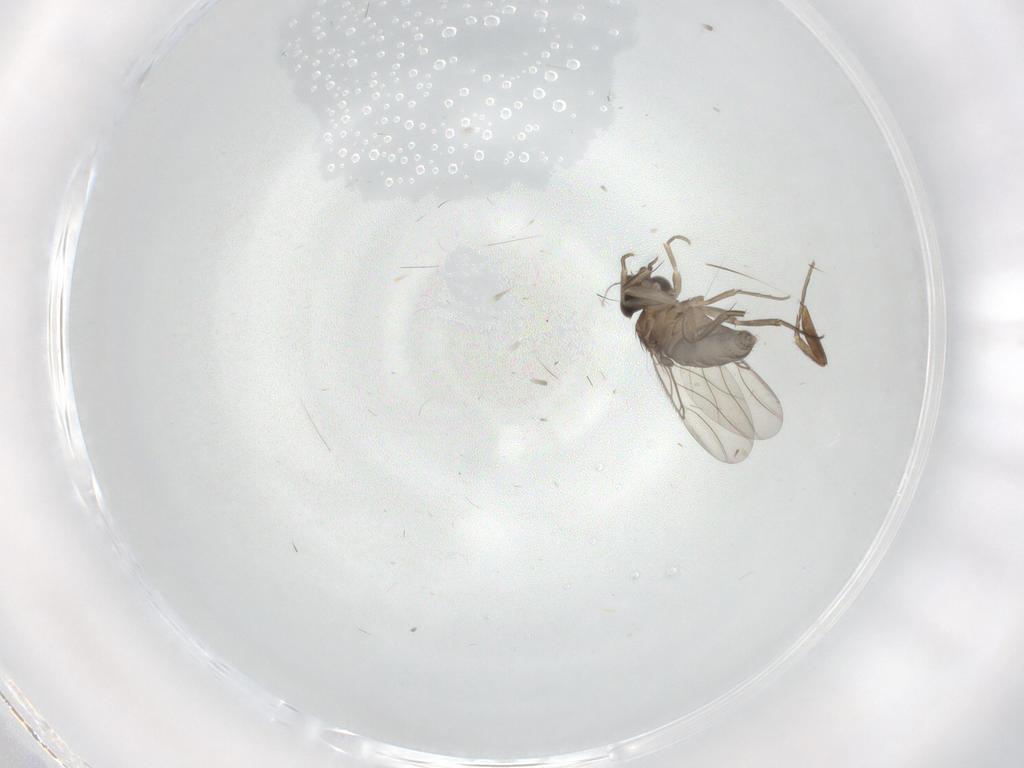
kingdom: Animalia
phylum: Arthropoda
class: Insecta
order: Diptera
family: Phoridae
